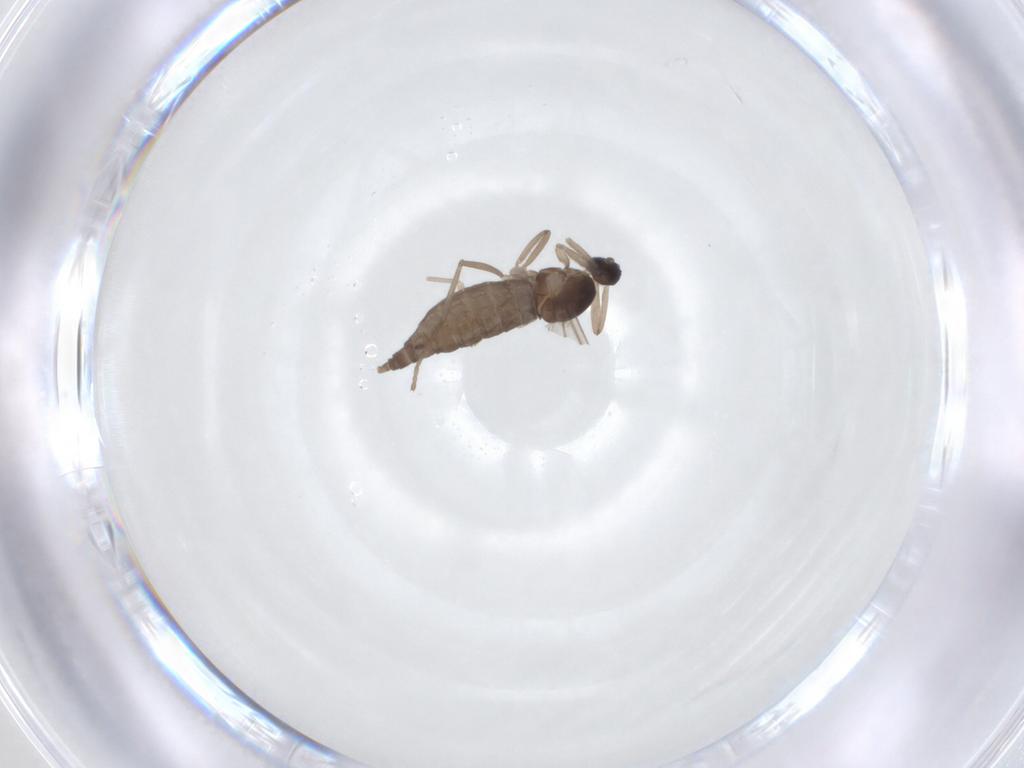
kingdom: Animalia
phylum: Arthropoda
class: Insecta
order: Diptera
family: Cecidomyiidae
